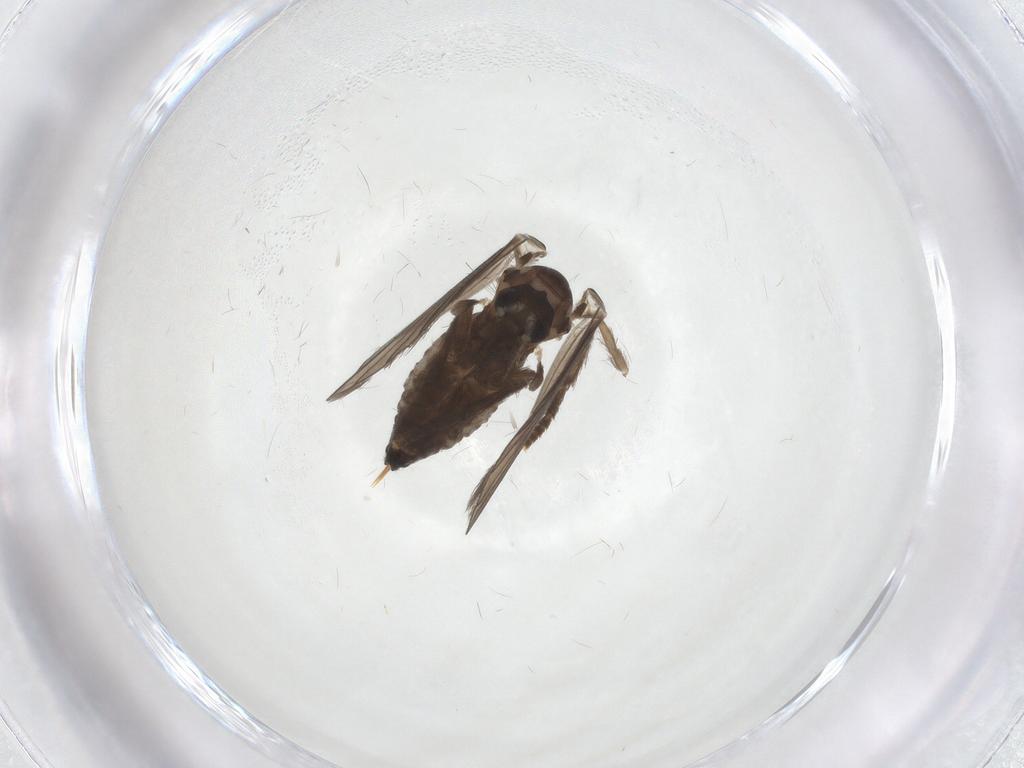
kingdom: Animalia
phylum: Arthropoda
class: Insecta
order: Diptera
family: Psychodidae
